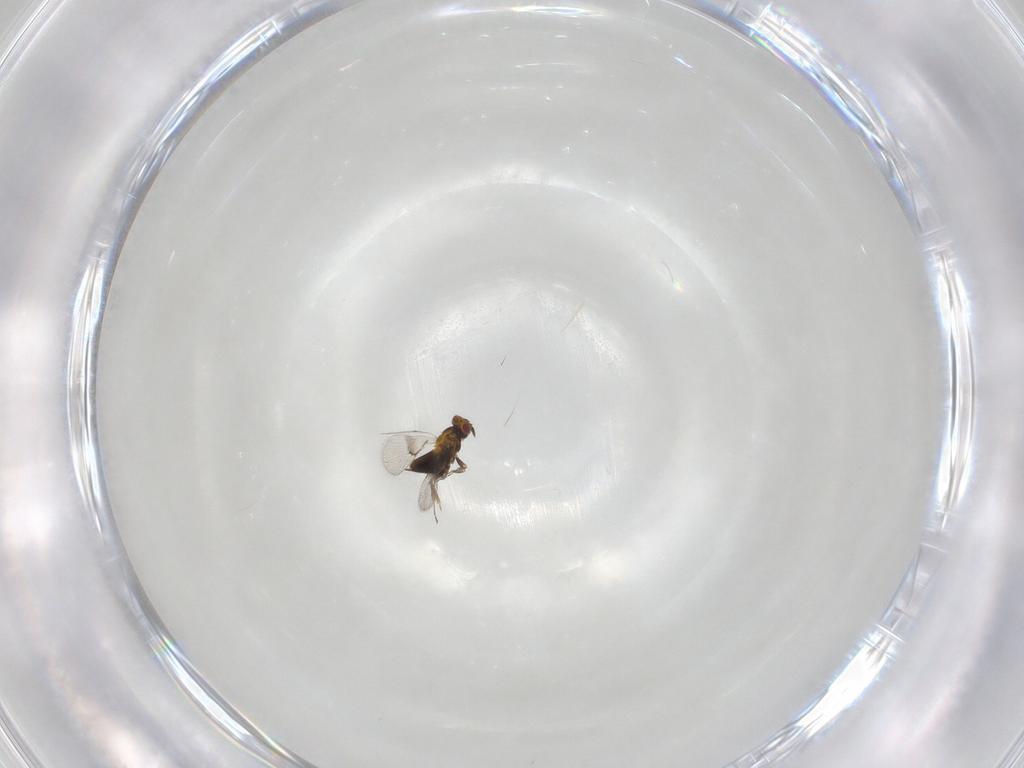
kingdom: Animalia
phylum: Arthropoda
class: Insecta
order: Hymenoptera
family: Trichogrammatidae
